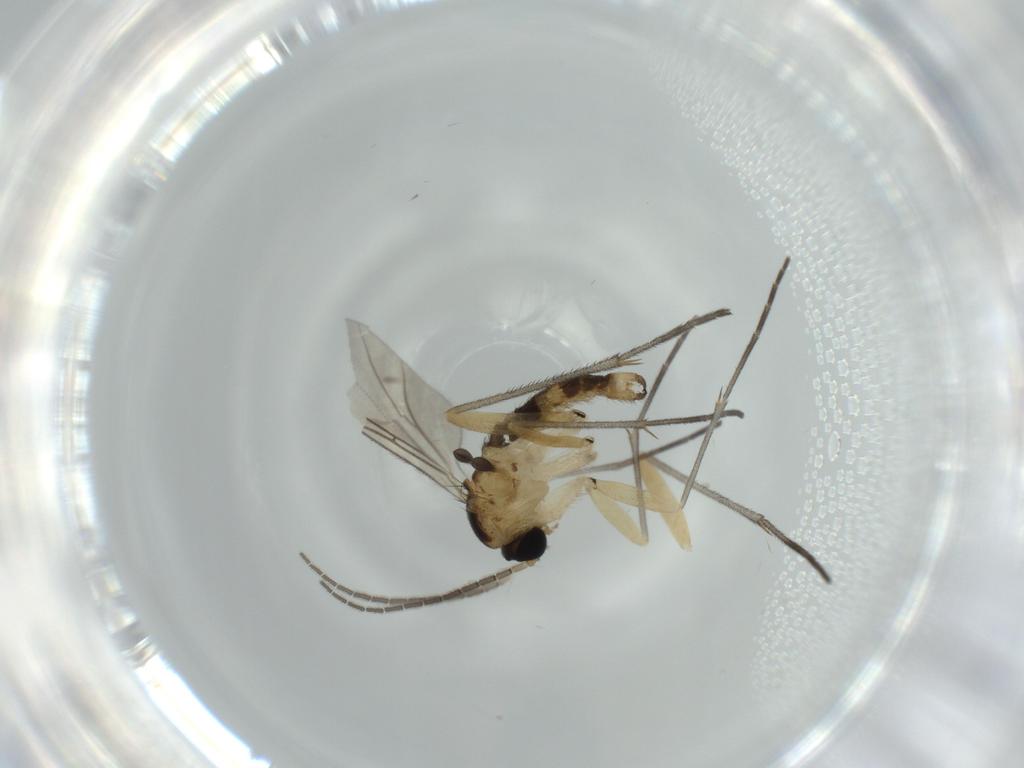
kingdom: Animalia
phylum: Arthropoda
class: Insecta
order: Diptera
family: Sciaridae
